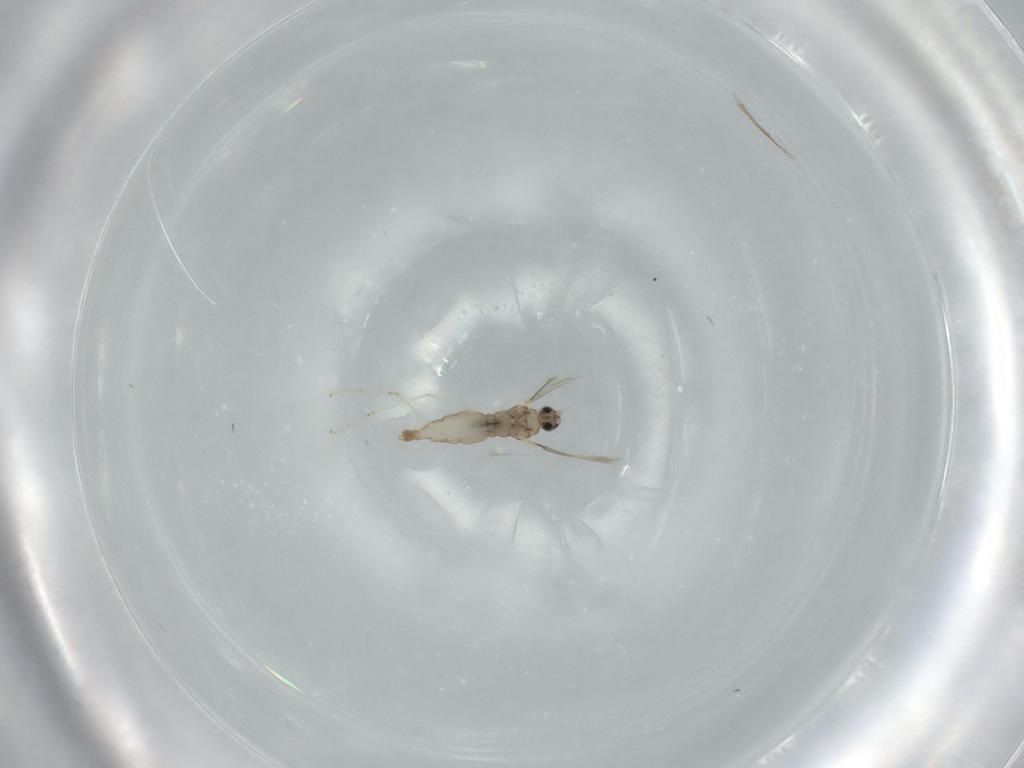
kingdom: Animalia
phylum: Arthropoda
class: Insecta
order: Diptera
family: Cecidomyiidae
